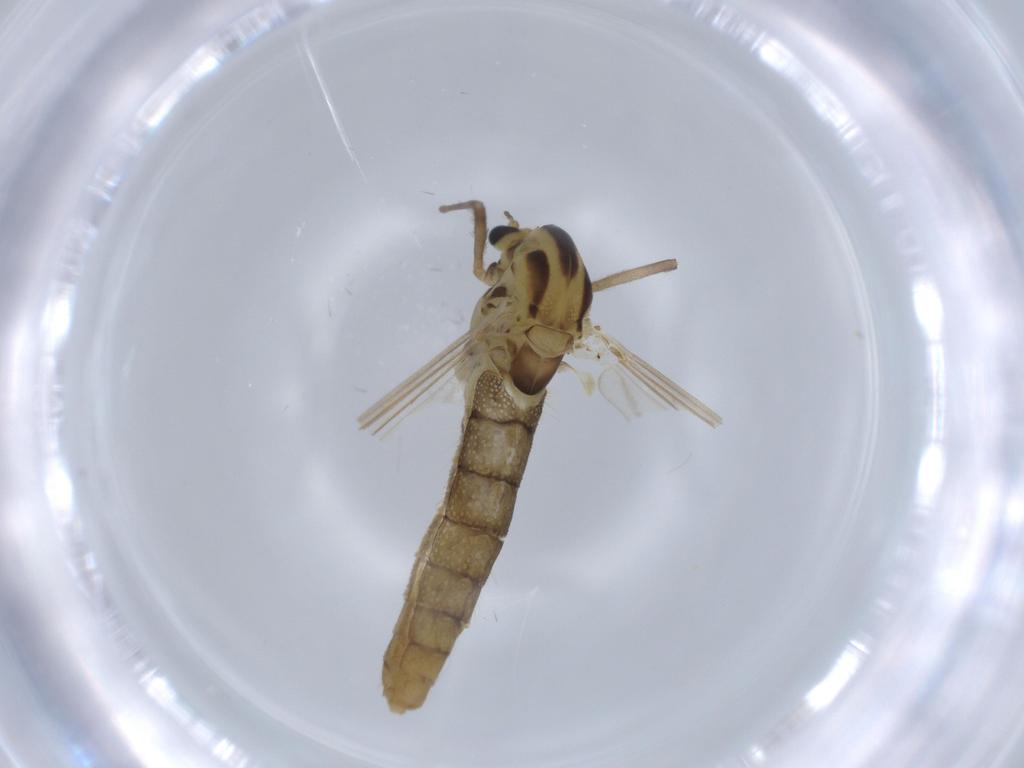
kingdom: Animalia
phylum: Arthropoda
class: Insecta
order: Diptera
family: Chironomidae
